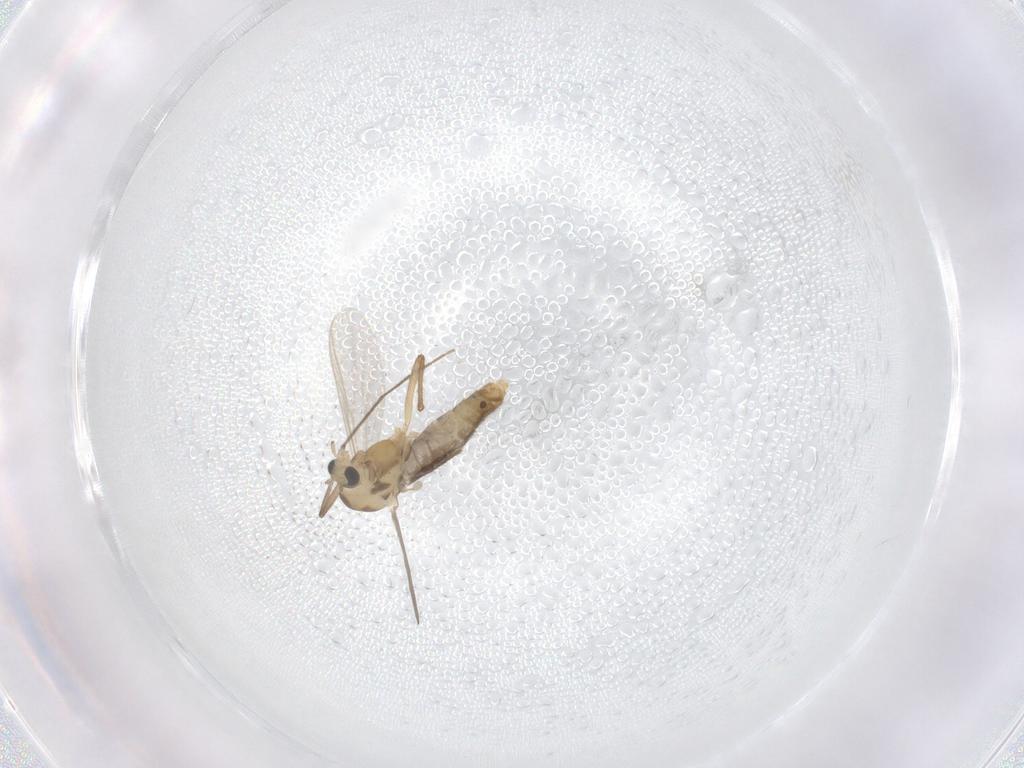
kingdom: Animalia
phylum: Arthropoda
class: Insecta
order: Diptera
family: Chironomidae
